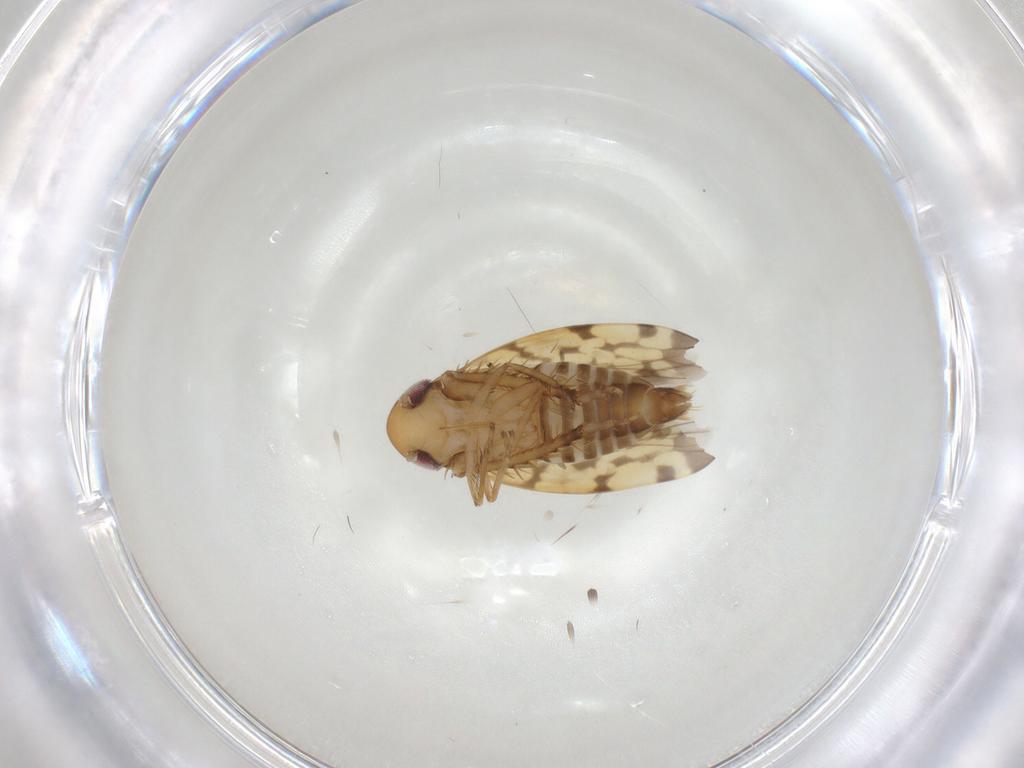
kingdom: Animalia
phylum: Arthropoda
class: Insecta
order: Hemiptera
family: Cicadellidae
